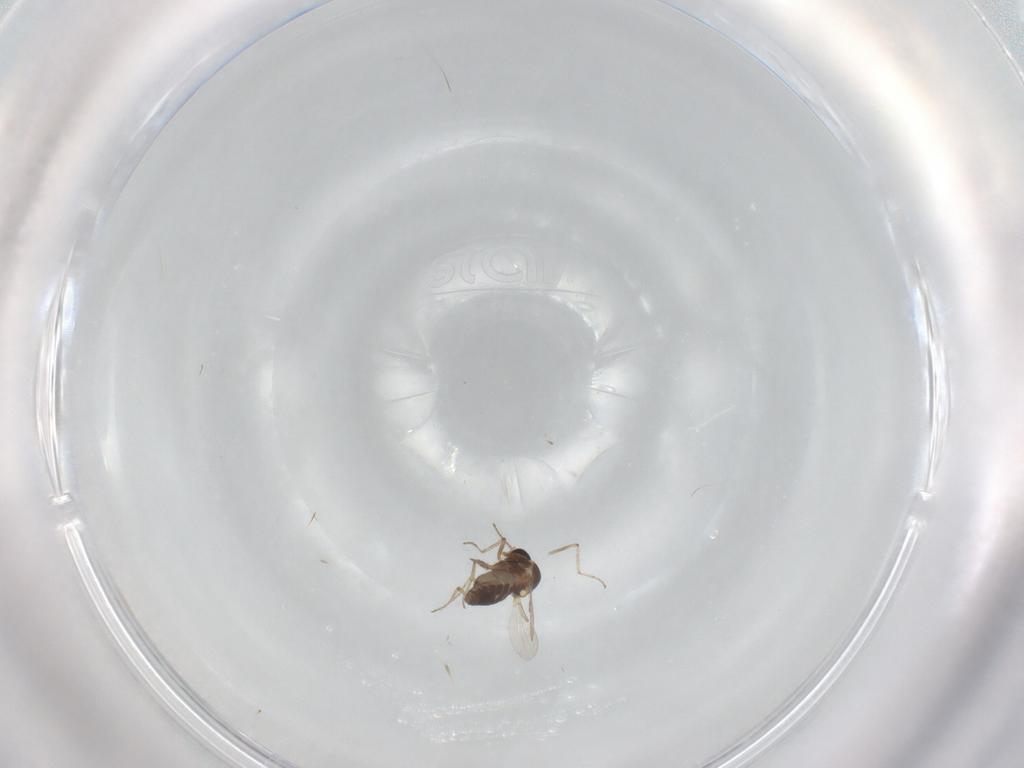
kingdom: Animalia
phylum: Arthropoda
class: Insecta
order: Diptera
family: Ceratopogonidae
